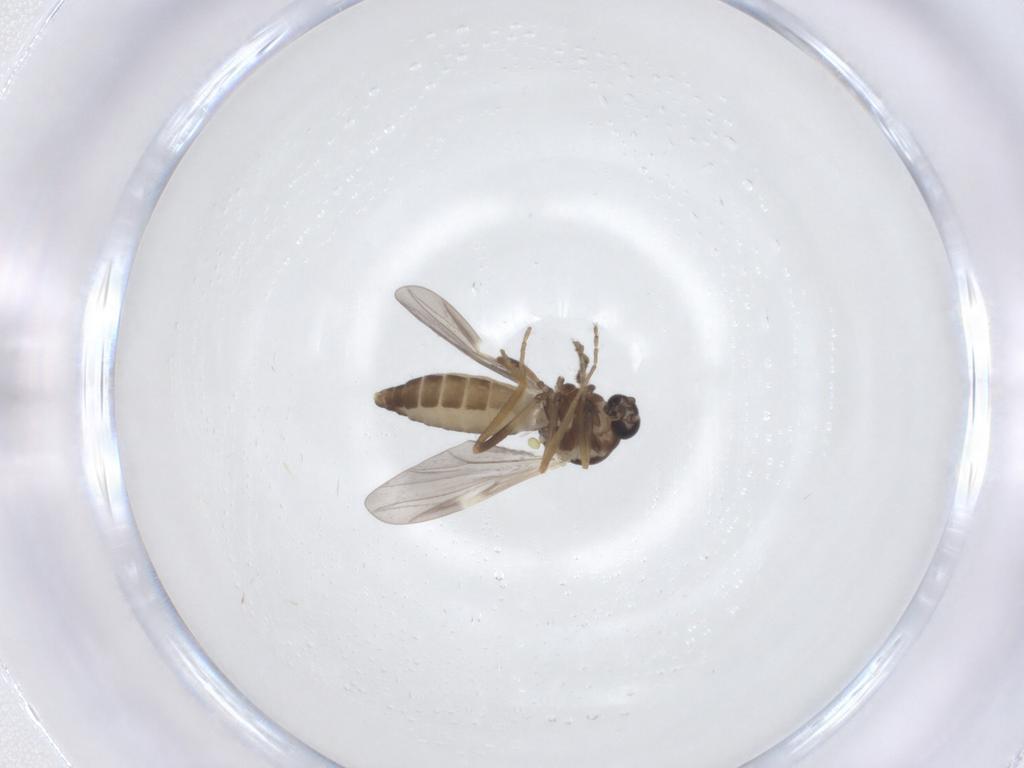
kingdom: Animalia
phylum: Arthropoda
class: Insecta
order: Diptera
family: Ceratopogonidae
